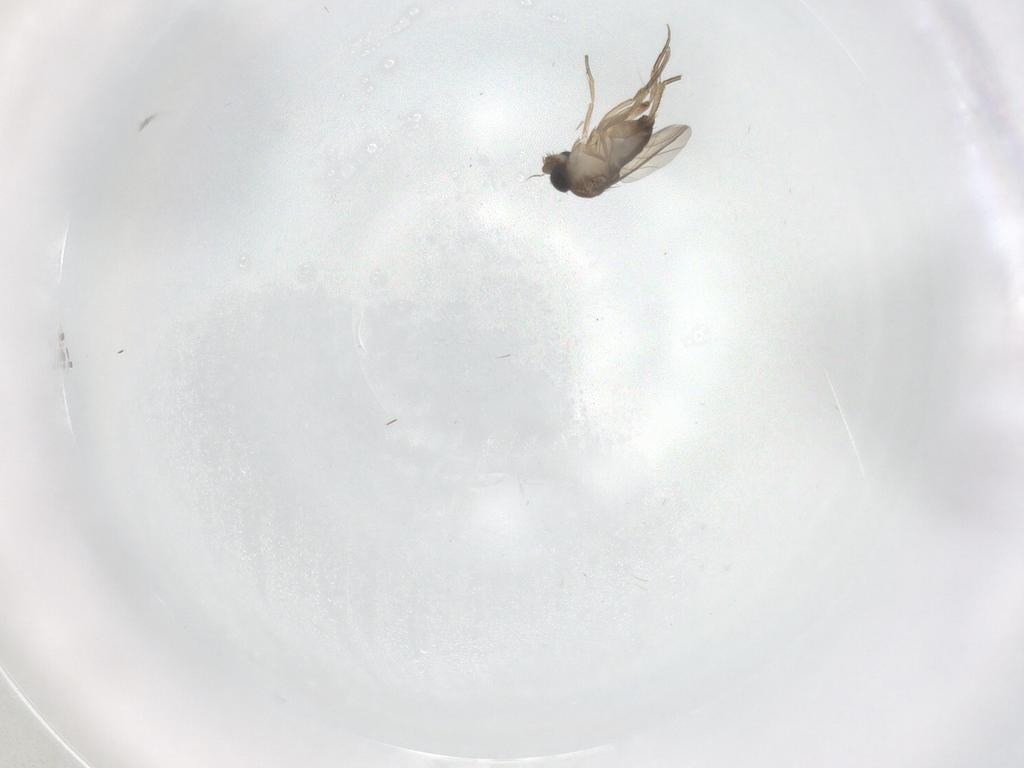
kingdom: Animalia
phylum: Arthropoda
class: Insecta
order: Diptera
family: Phoridae
